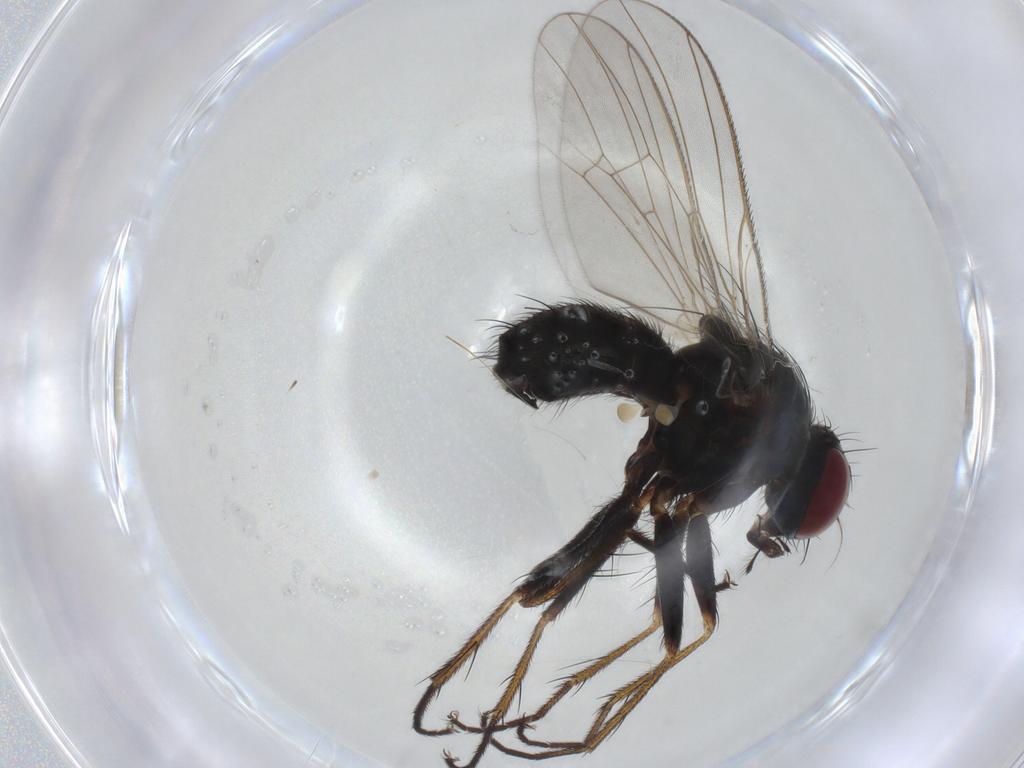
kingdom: Animalia
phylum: Arthropoda
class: Insecta
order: Diptera
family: Muscidae
